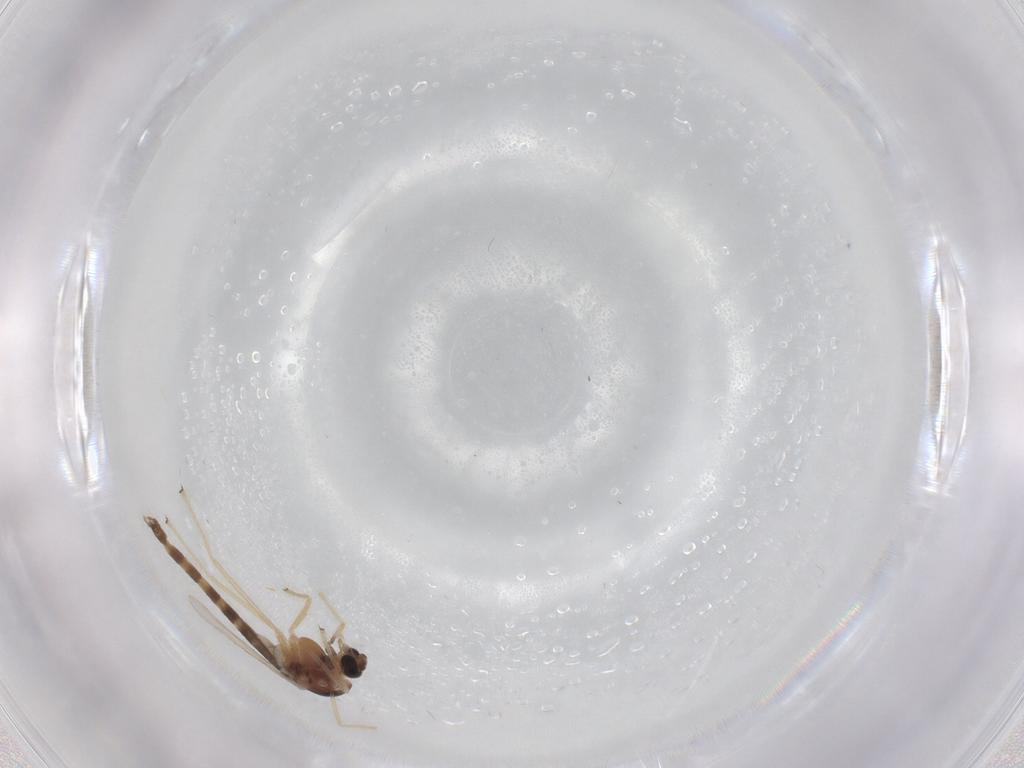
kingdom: Animalia
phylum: Arthropoda
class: Insecta
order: Diptera
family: Chironomidae
